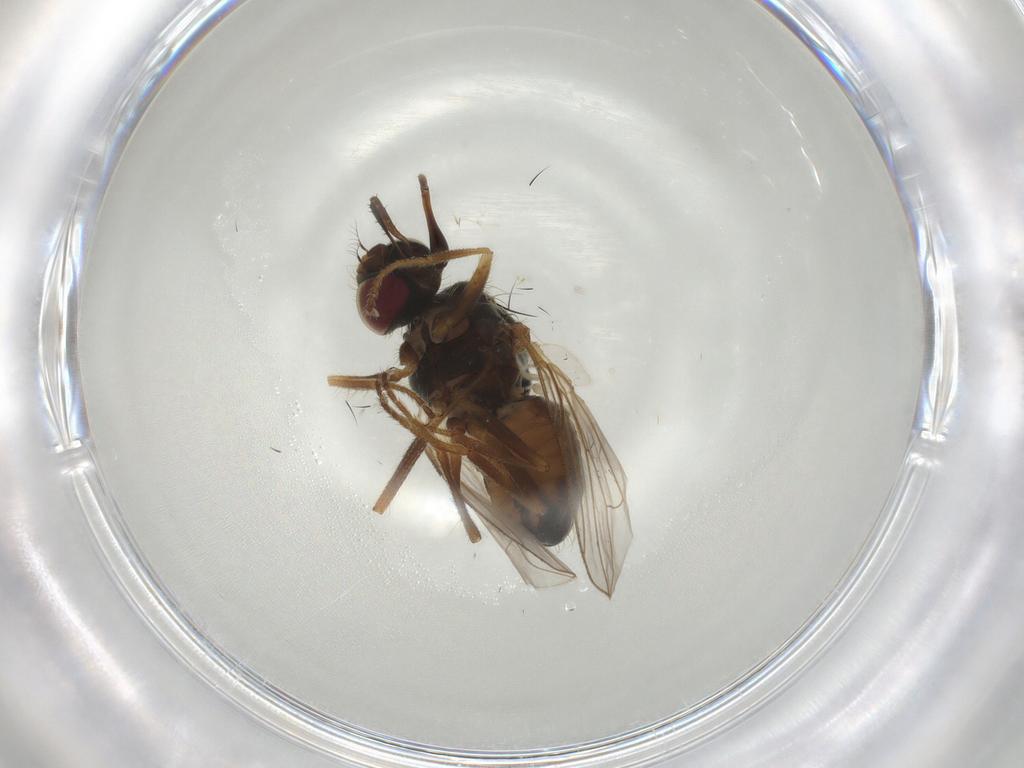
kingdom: Animalia
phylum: Arthropoda
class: Insecta
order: Diptera
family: Muscidae
